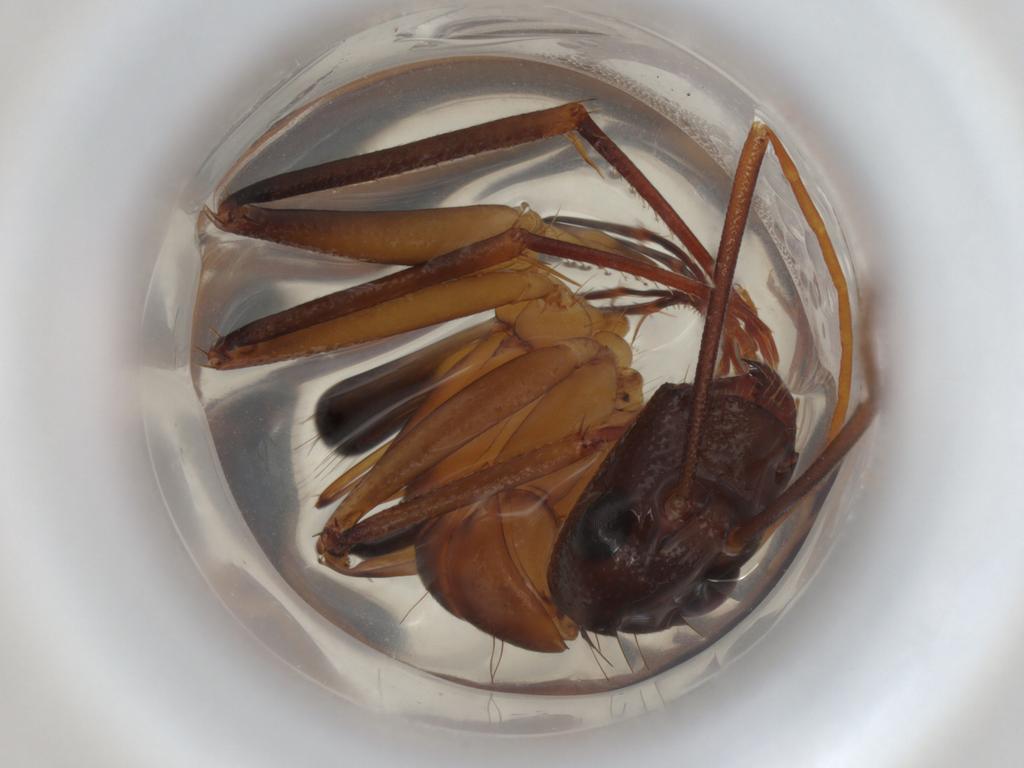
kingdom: Animalia
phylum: Arthropoda
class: Insecta
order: Hymenoptera
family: Formicidae
